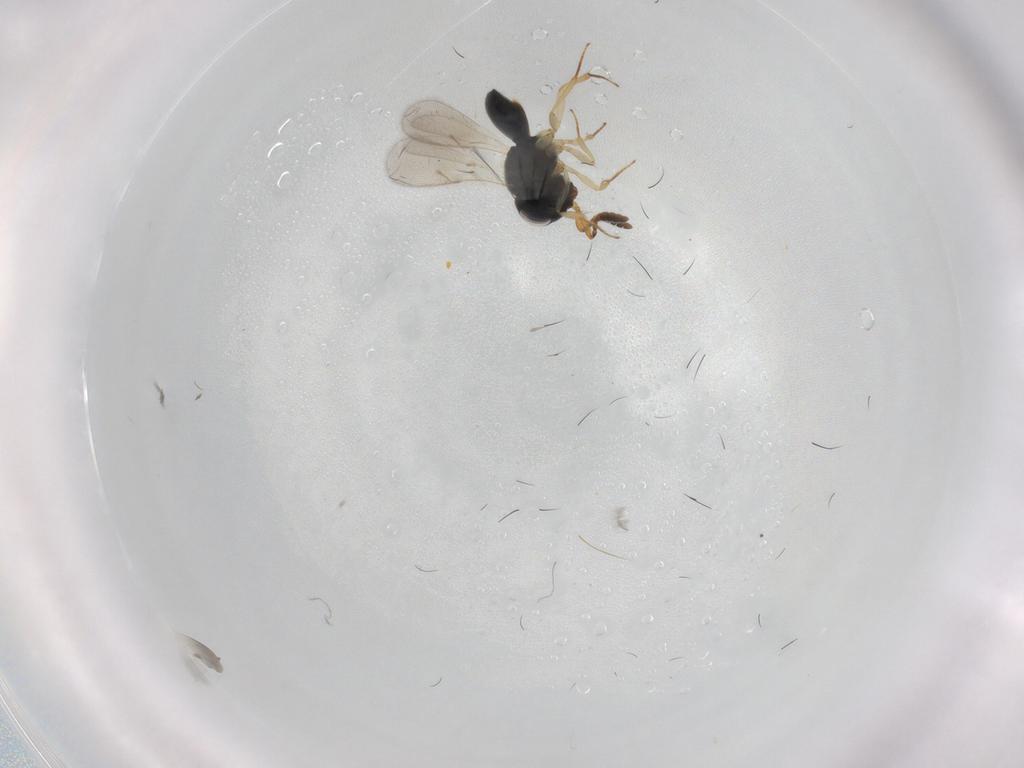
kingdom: Animalia
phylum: Arthropoda
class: Insecta
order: Hymenoptera
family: Scelionidae
